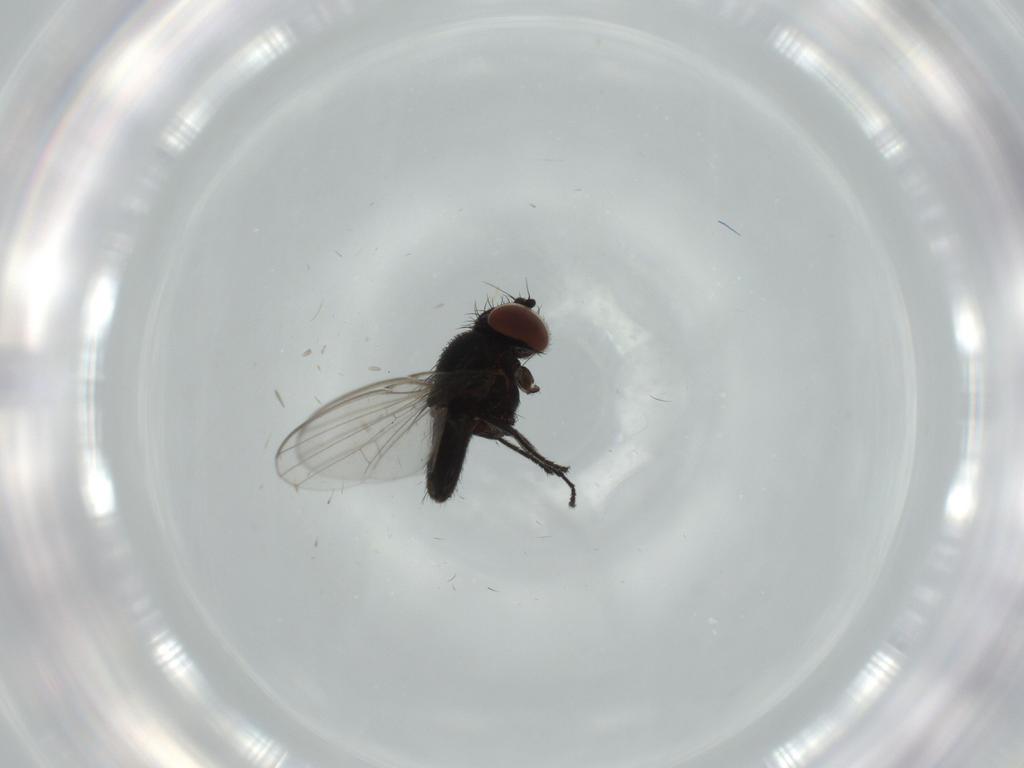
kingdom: Animalia
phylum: Arthropoda
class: Insecta
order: Diptera
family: Milichiidae
